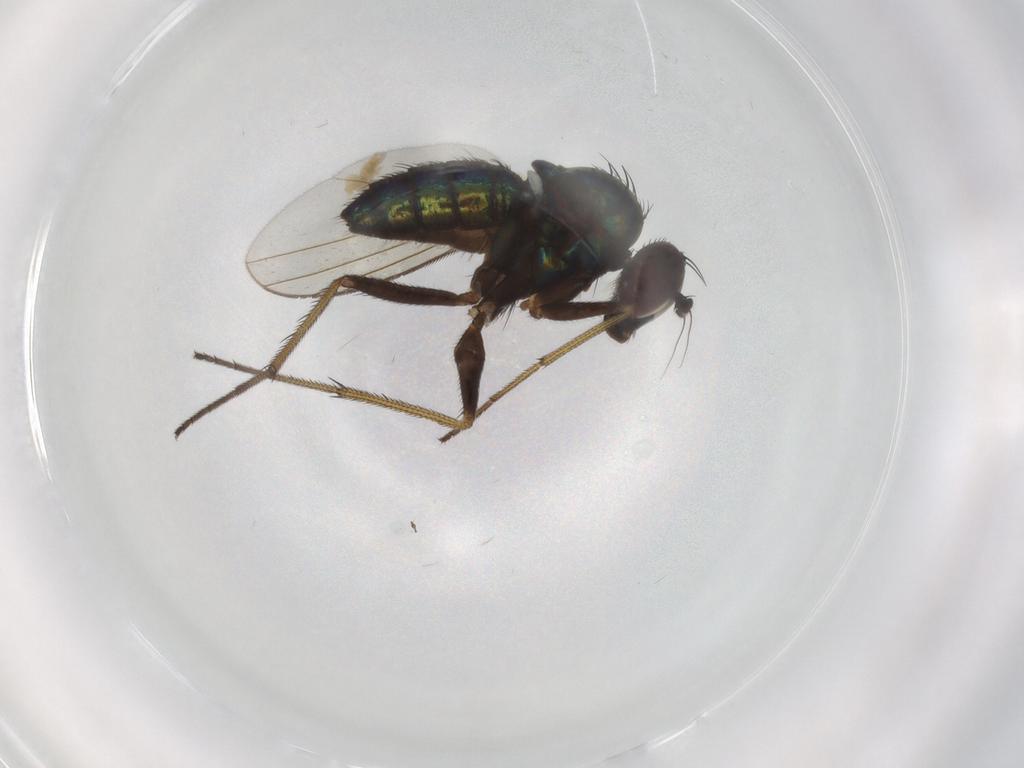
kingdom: Animalia
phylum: Arthropoda
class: Insecta
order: Diptera
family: Dolichopodidae
